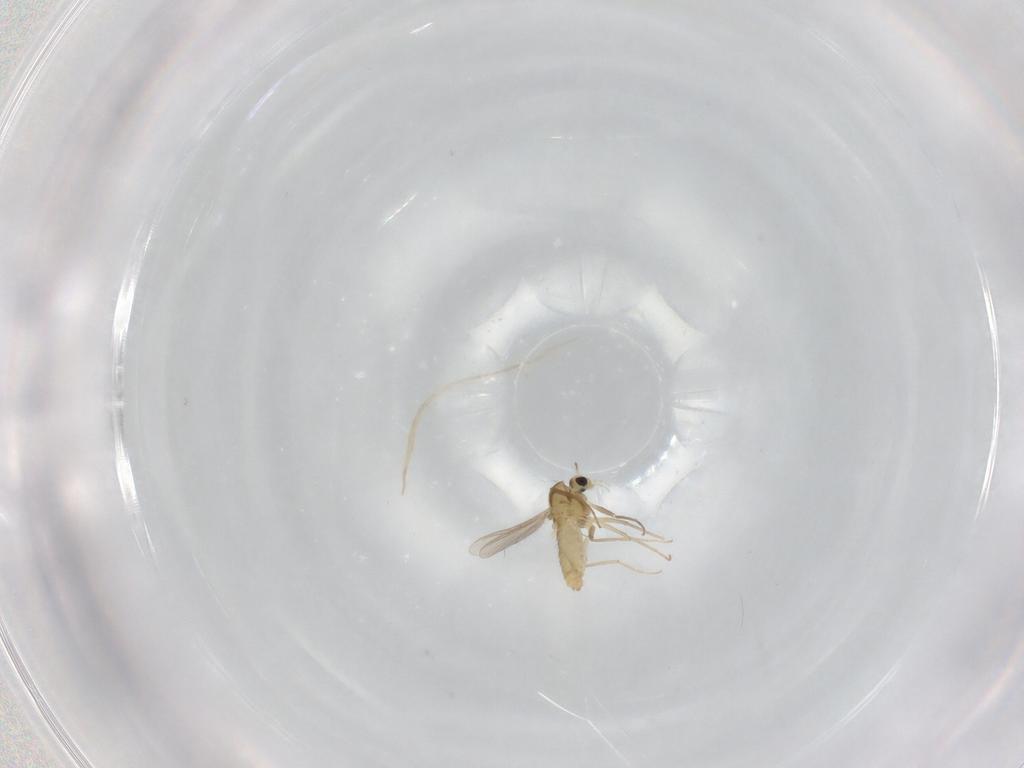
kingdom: Animalia
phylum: Arthropoda
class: Insecta
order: Diptera
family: Chironomidae
